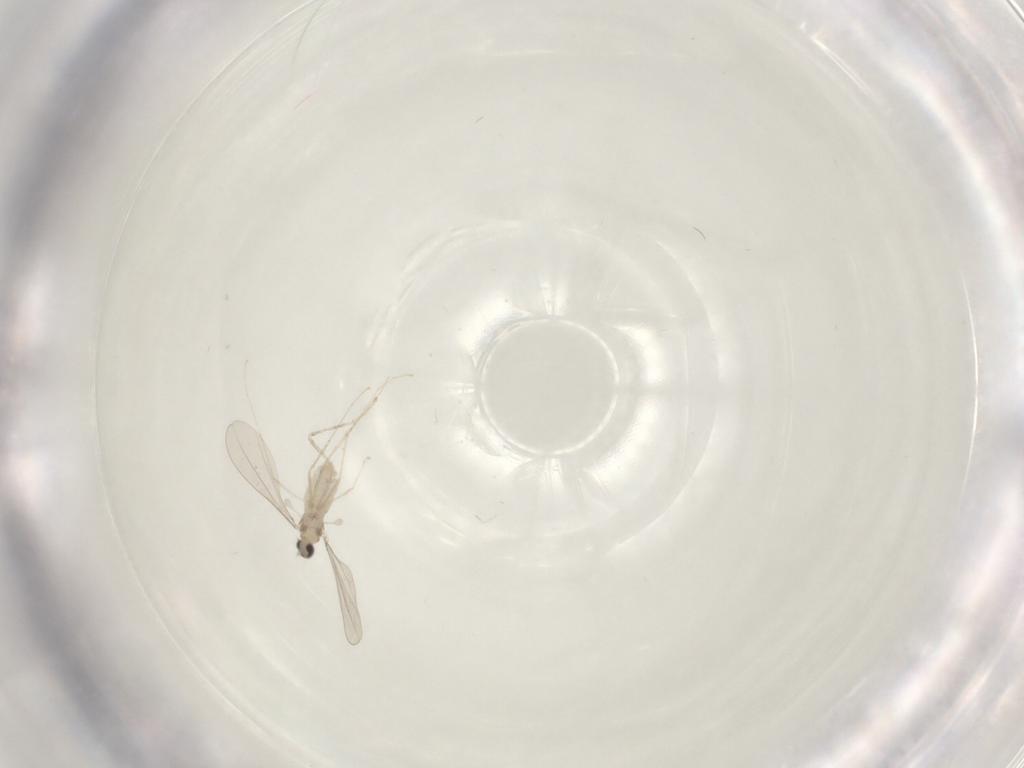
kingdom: Animalia
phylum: Arthropoda
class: Insecta
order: Diptera
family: Cecidomyiidae
